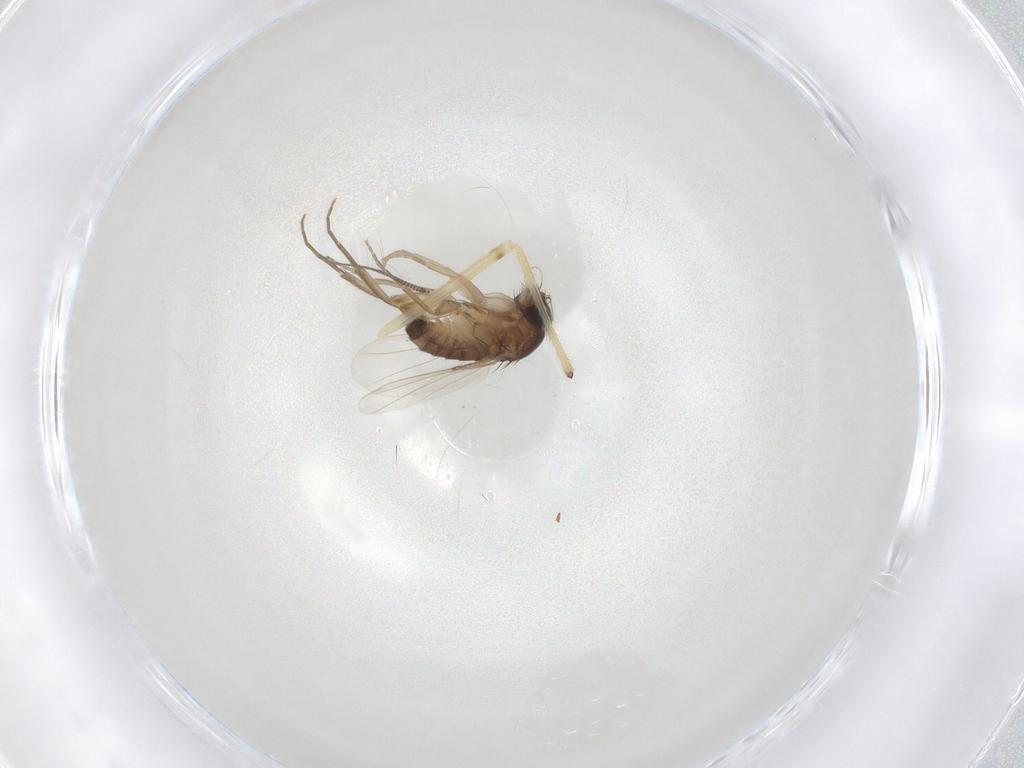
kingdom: Animalia
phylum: Arthropoda
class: Insecta
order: Diptera
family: Phoridae
